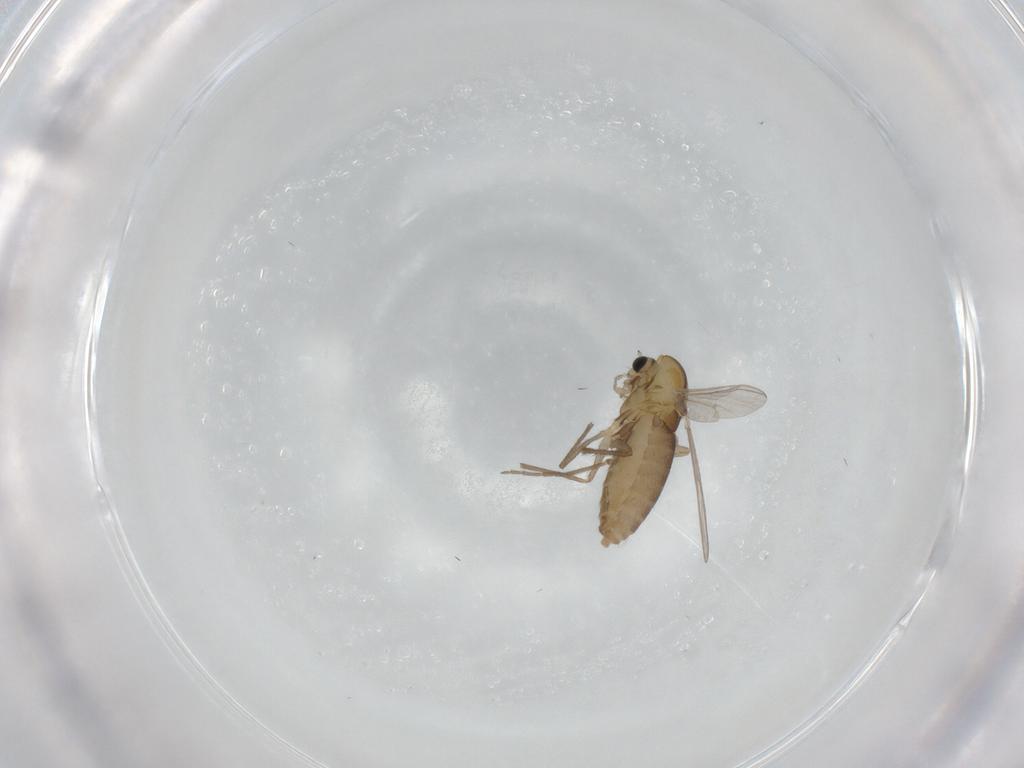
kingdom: Animalia
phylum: Arthropoda
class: Insecta
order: Diptera
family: Chironomidae
